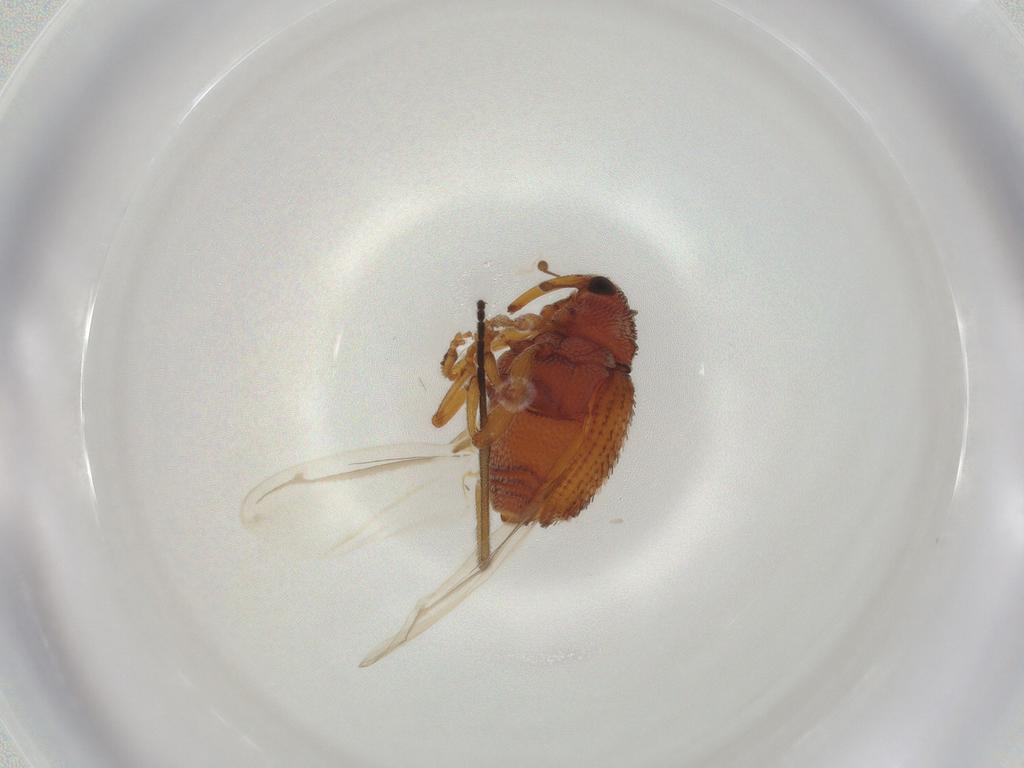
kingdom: Animalia
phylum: Arthropoda
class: Insecta
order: Coleoptera
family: Curculionidae
